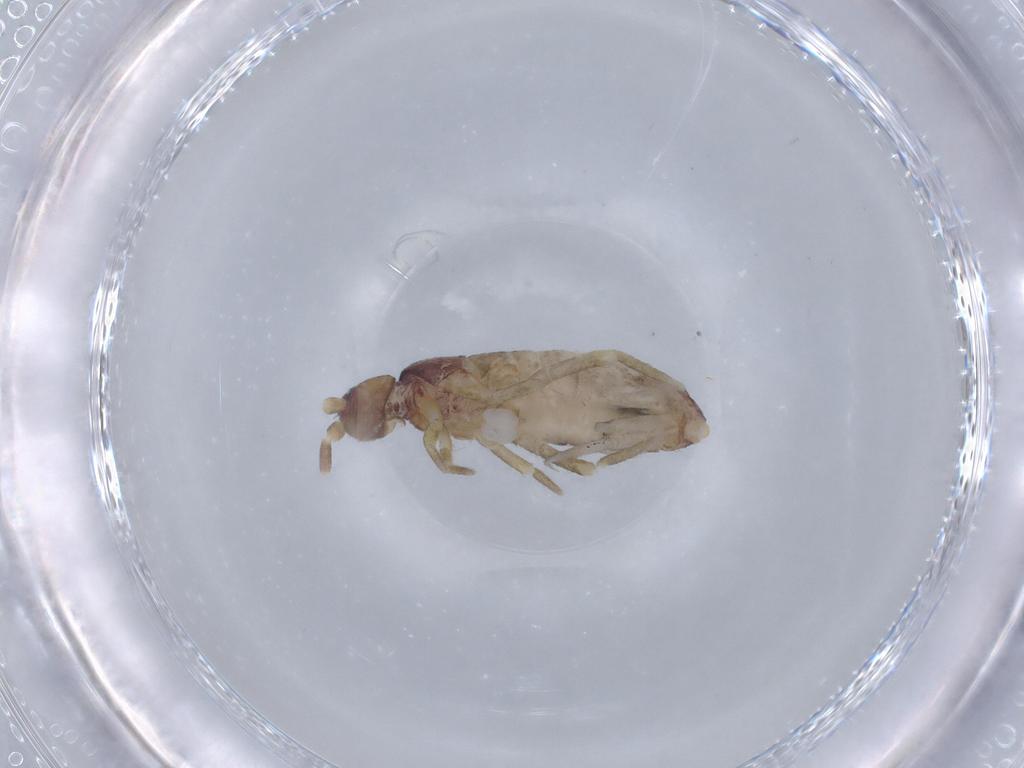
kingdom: Animalia
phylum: Arthropoda
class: Collembola
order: Entomobryomorpha
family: Tomoceridae
